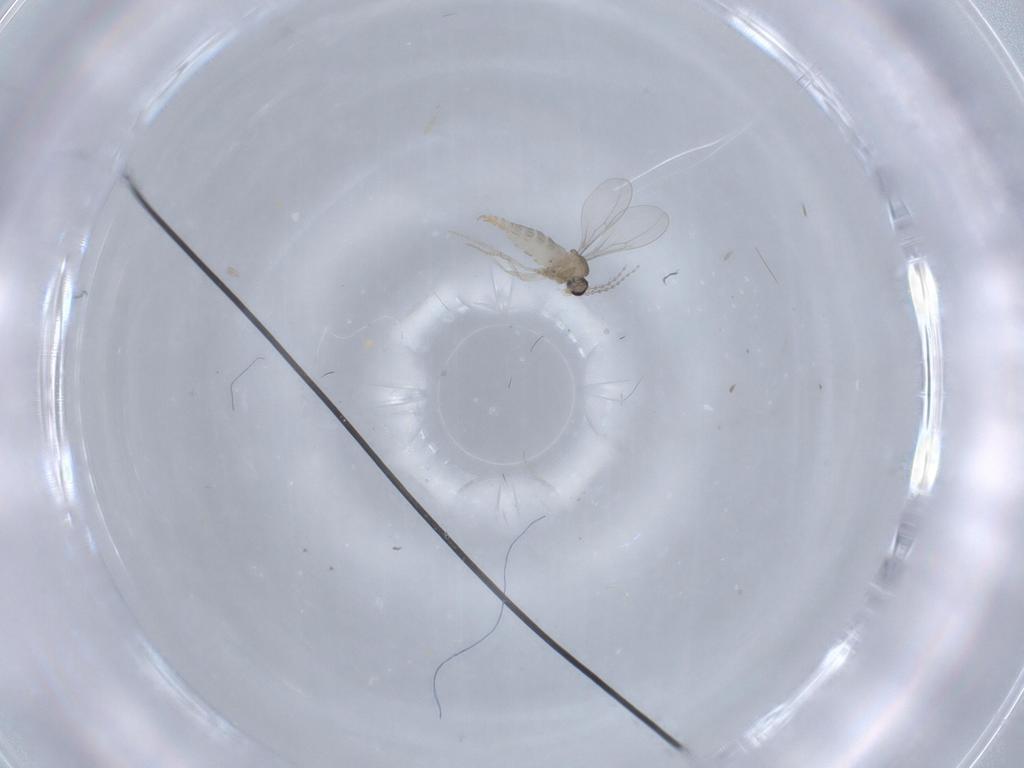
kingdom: Animalia
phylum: Arthropoda
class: Insecta
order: Diptera
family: Cecidomyiidae
